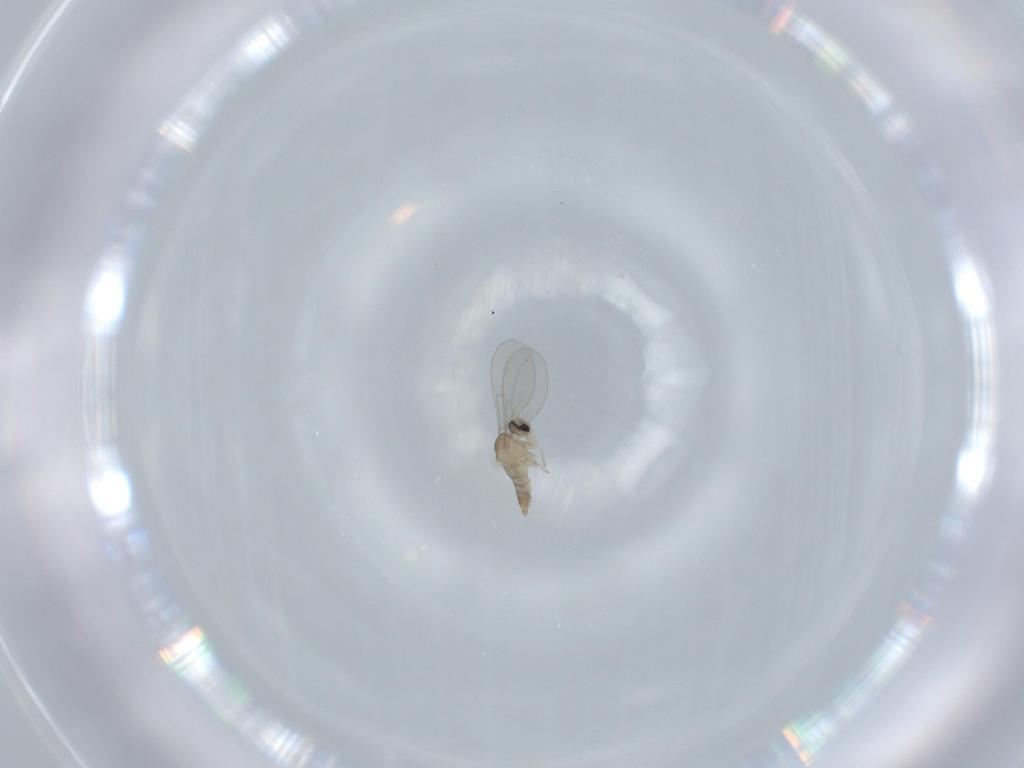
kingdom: Animalia
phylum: Arthropoda
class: Insecta
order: Diptera
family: Cecidomyiidae
